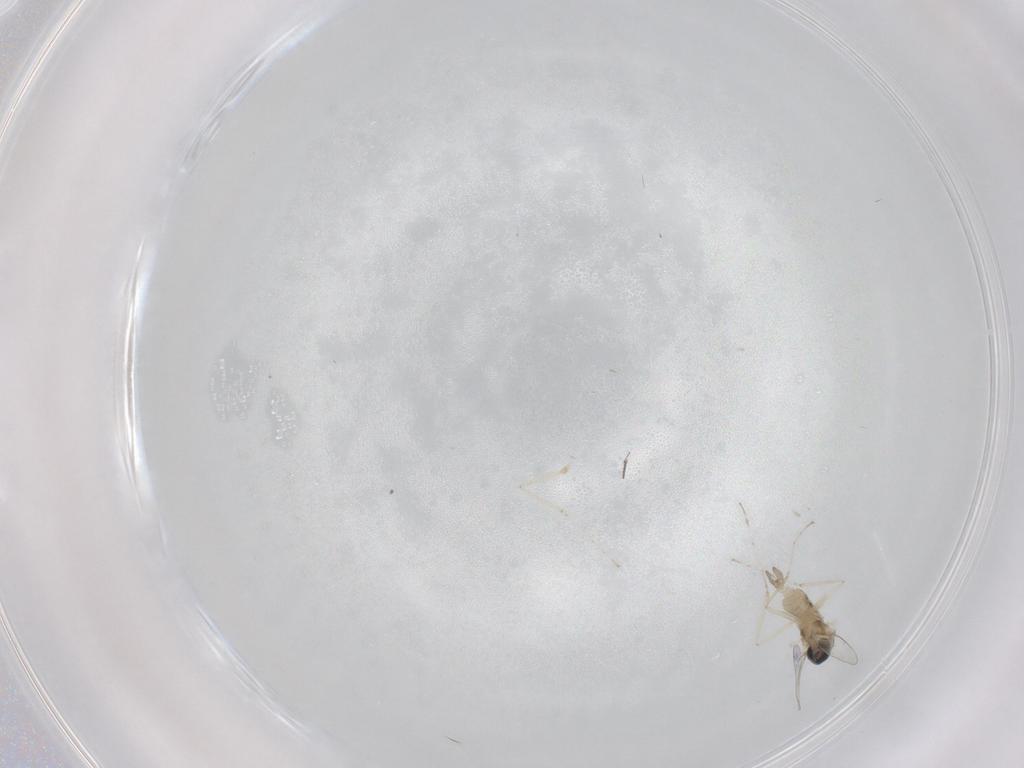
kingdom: Animalia
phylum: Arthropoda
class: Insecta
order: Diptera
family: Cecidomyiidae
